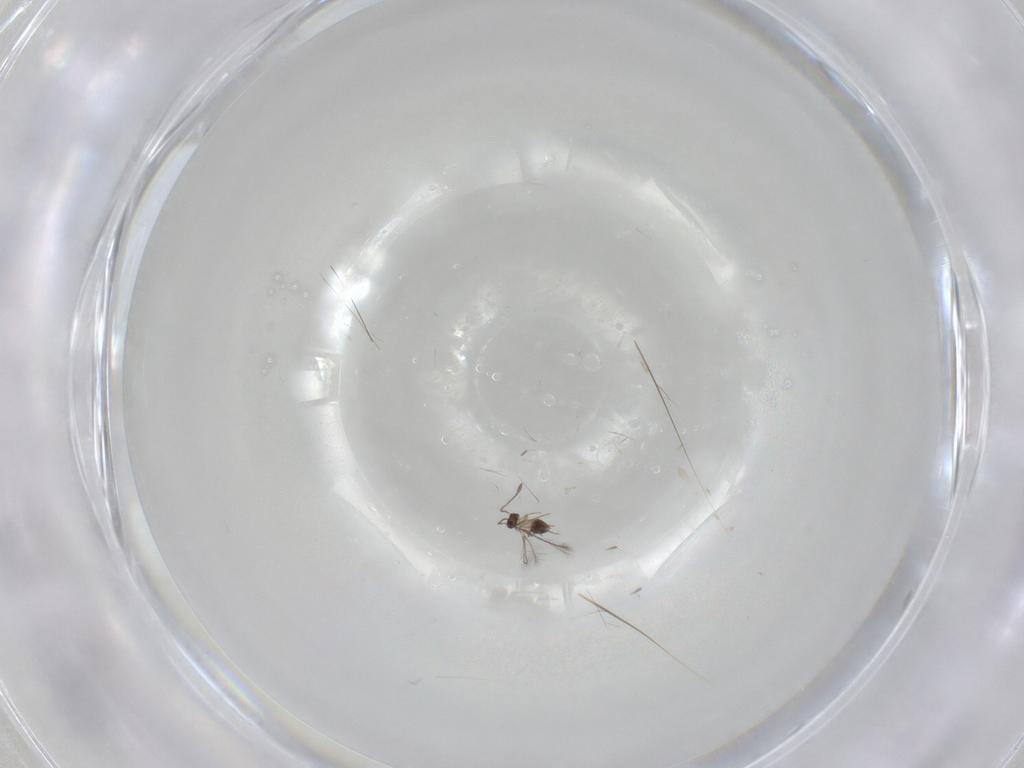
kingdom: Animalia
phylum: Arthropoda
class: Insecta
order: Hymenoptera
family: Mymaridae
